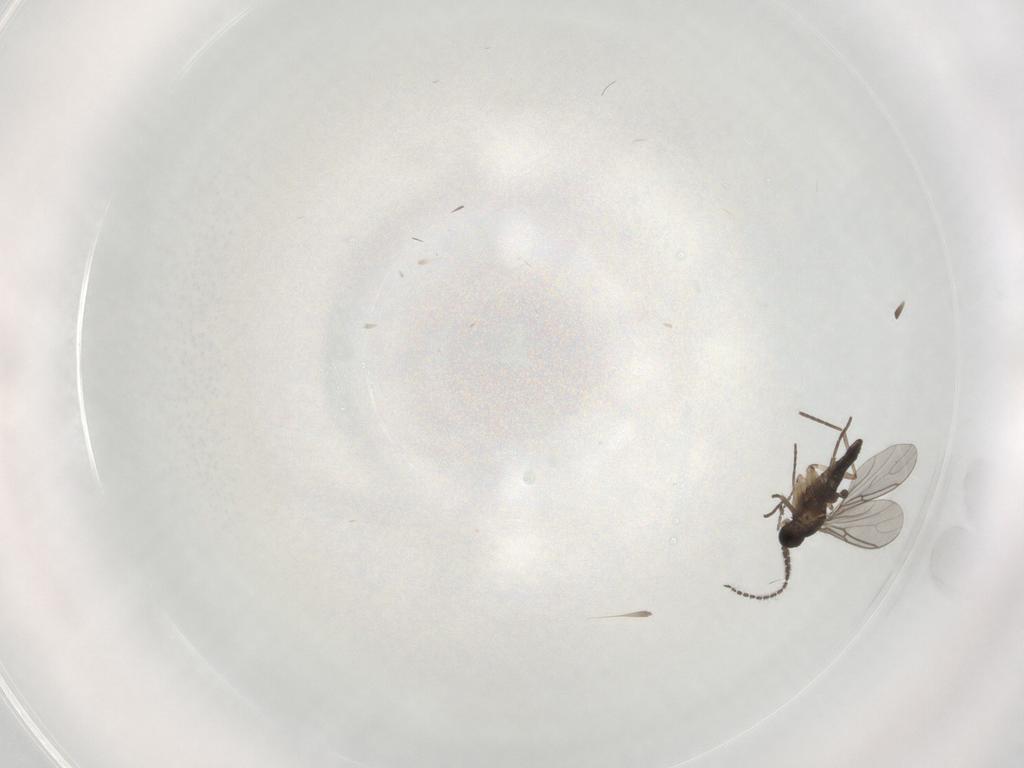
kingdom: Animalia
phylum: Arthropoda
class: Insecta
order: Diptera
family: Sciaridae
